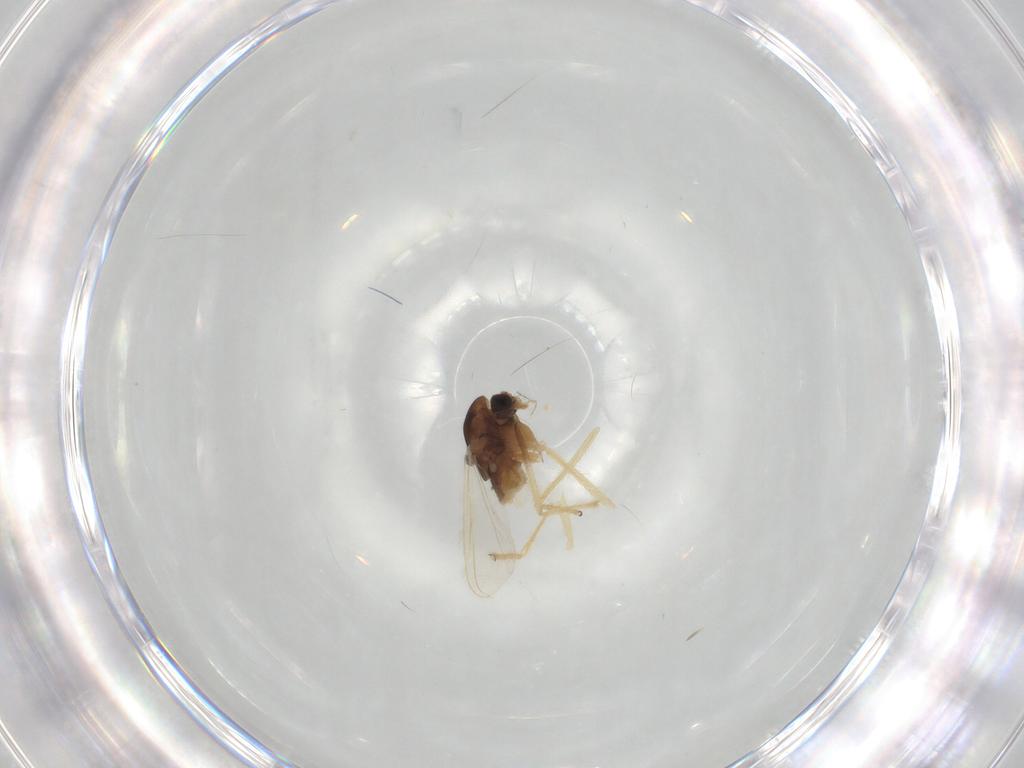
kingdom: Animalia
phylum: Arthropoda
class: Insecta
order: Diptera
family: Chironomidae
